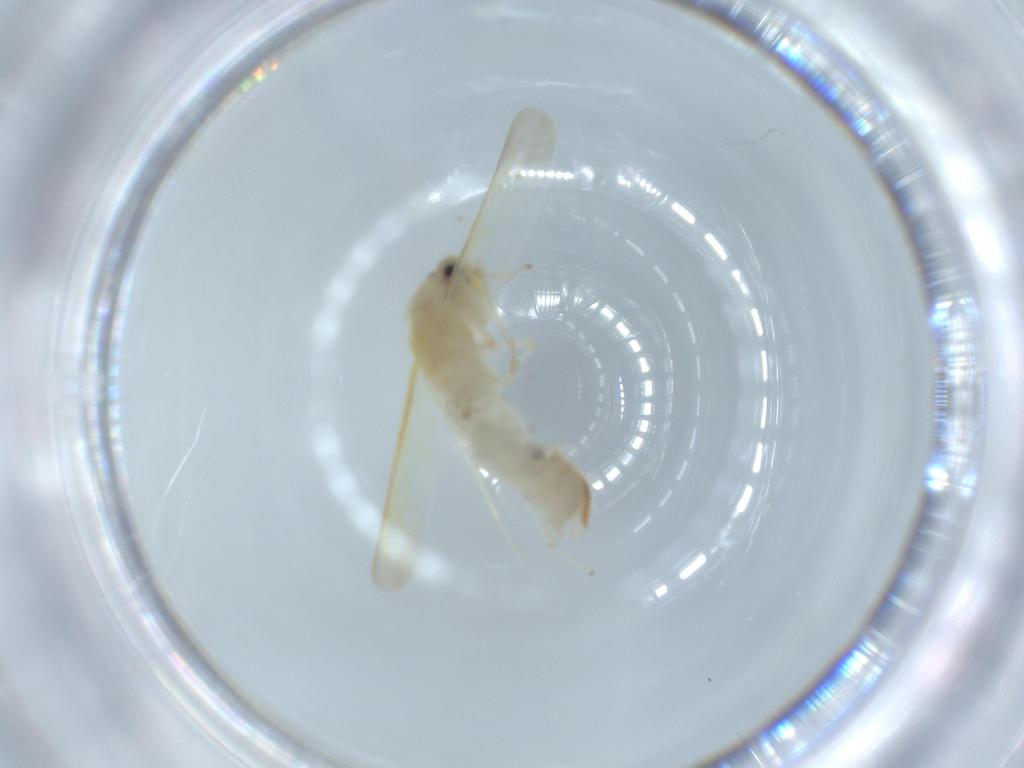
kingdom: Animalia
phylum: Arthropoda
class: Insecta
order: Hemiptera
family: Cicadellidae
